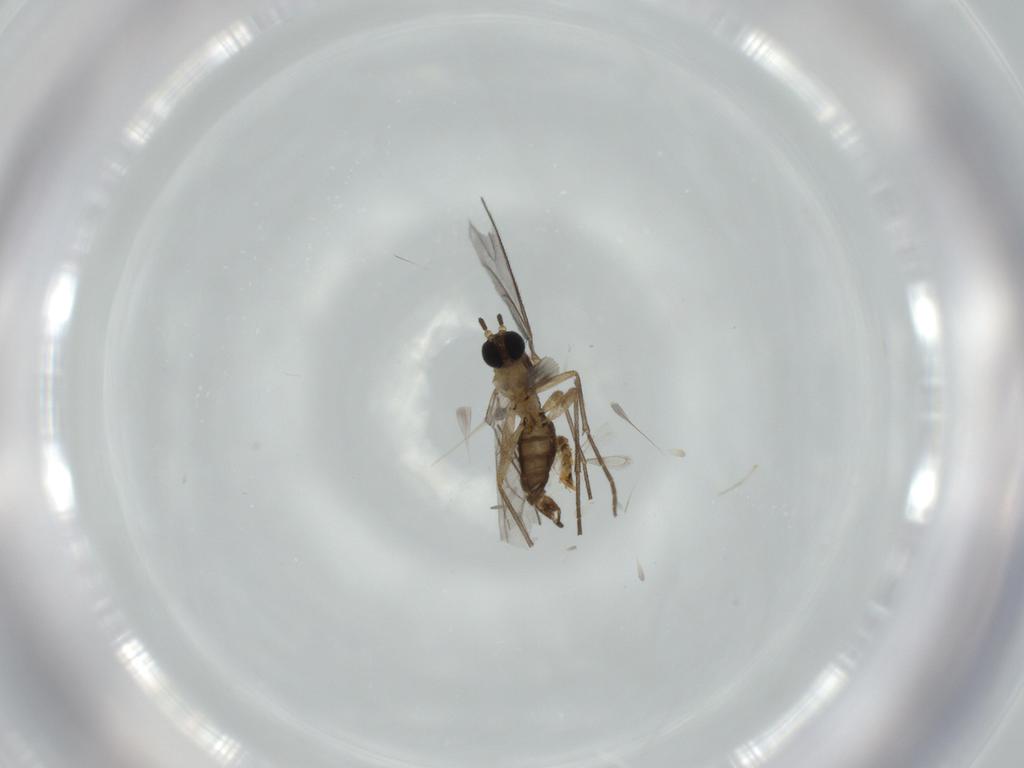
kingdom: Animalia
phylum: Arthropoda
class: Insecta
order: Diptera
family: Sciaridae
